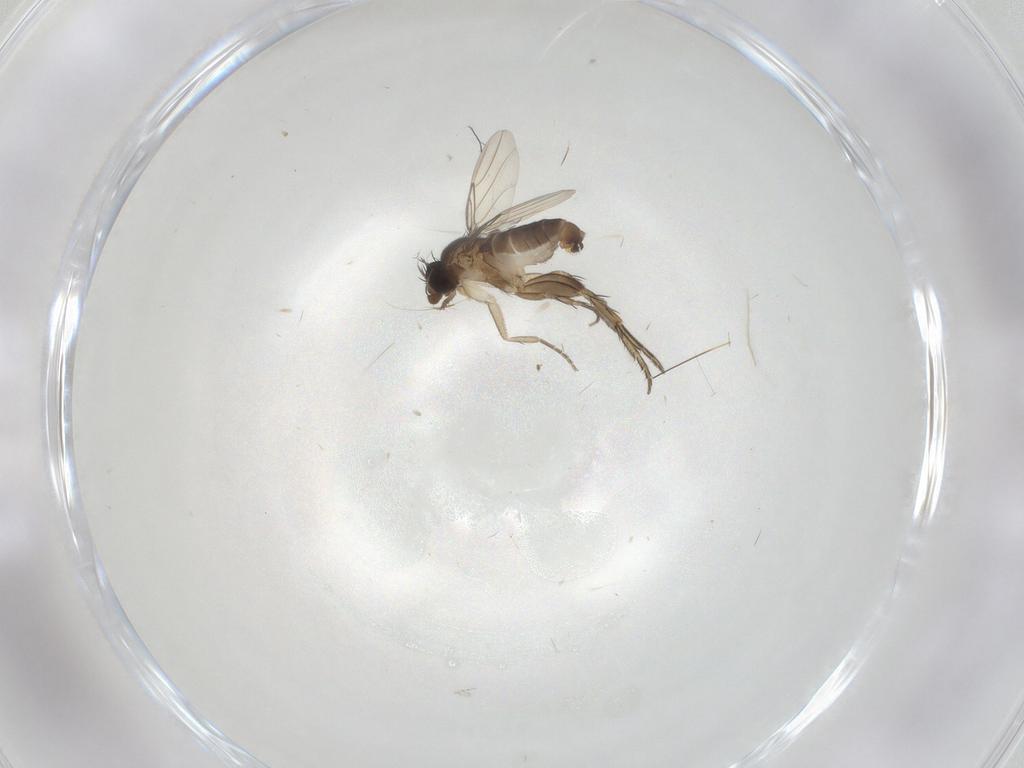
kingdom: Animalia
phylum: Arthropoda
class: Insecta
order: Diptera
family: Phoridae
